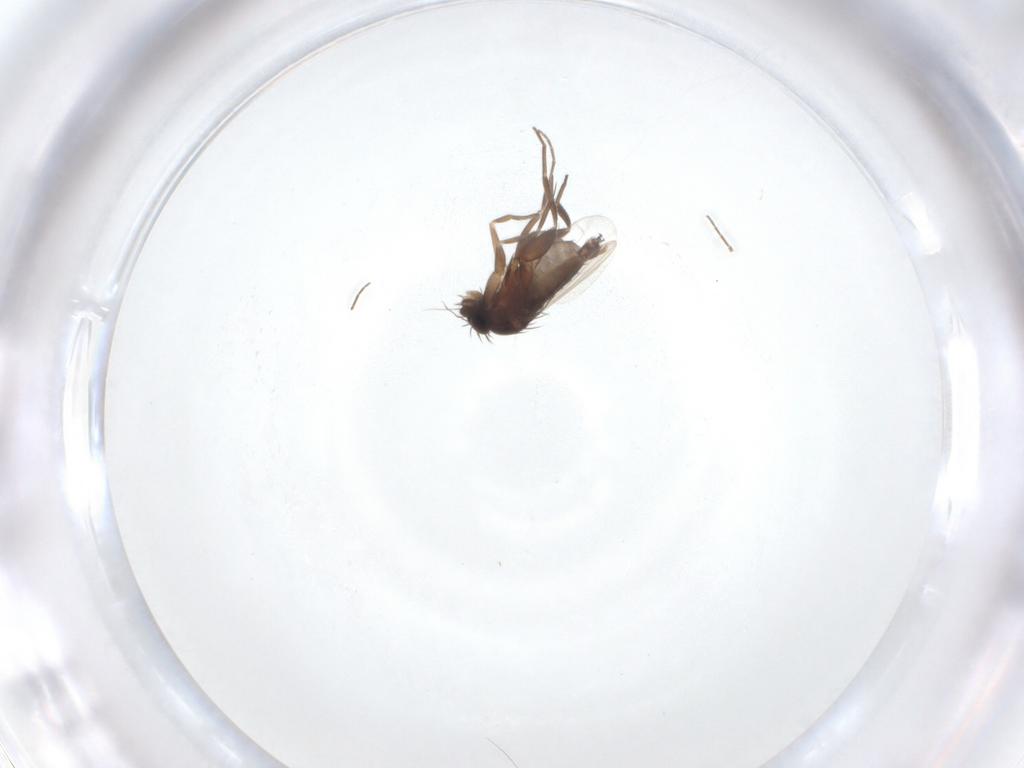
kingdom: Animalia
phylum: Arthropoda
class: Insecta
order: Diptera
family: Phoridae
